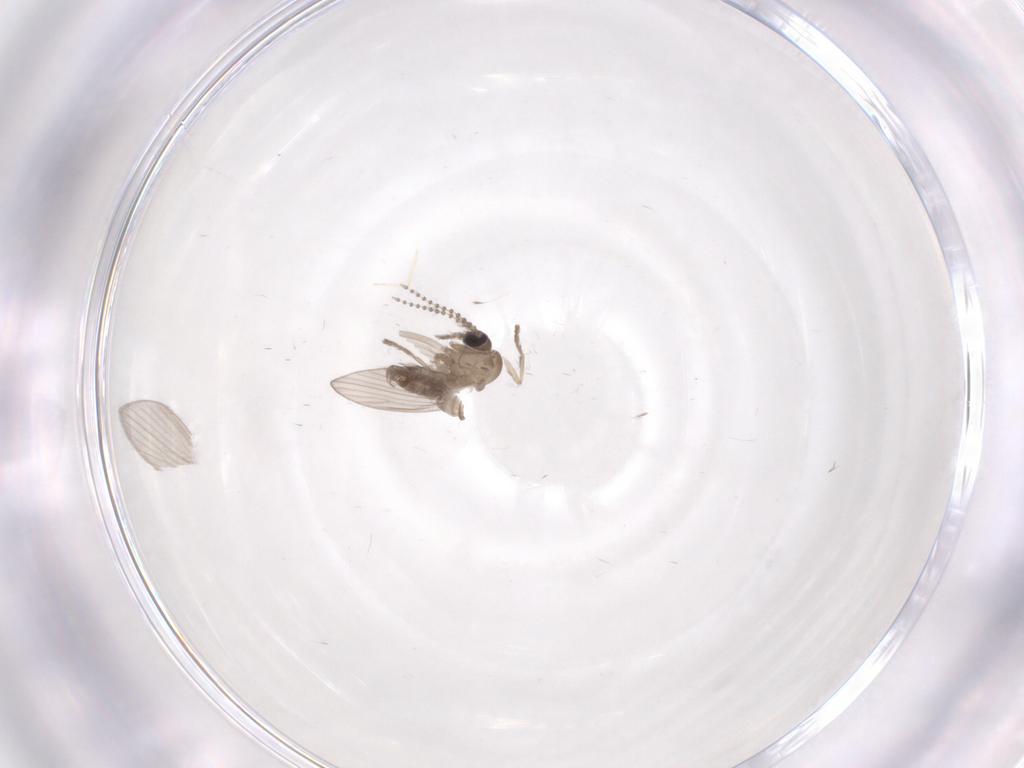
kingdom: Animalia
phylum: Arthropoda
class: Insecta
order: Diptera
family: Psychodidae
